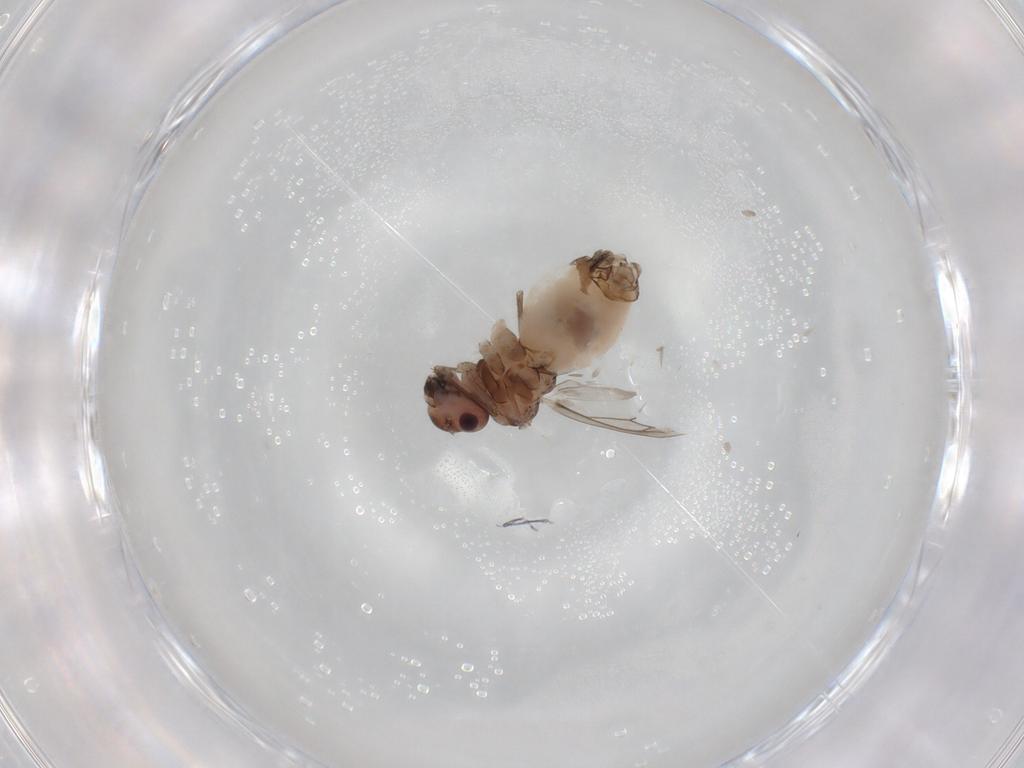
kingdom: Animalia
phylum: Arthropoda
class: Insecta
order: Psocodea
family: Peripsocidae
